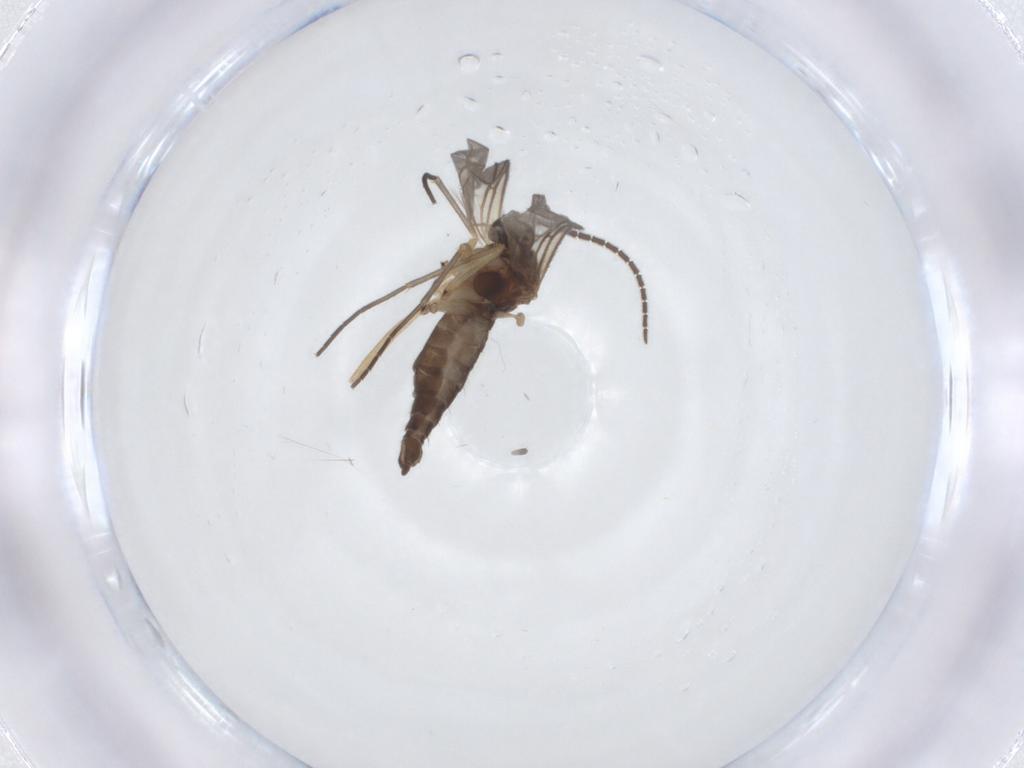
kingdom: Animalia
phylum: Arthropoda
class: Insecta
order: Diptera
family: Sciaridae
